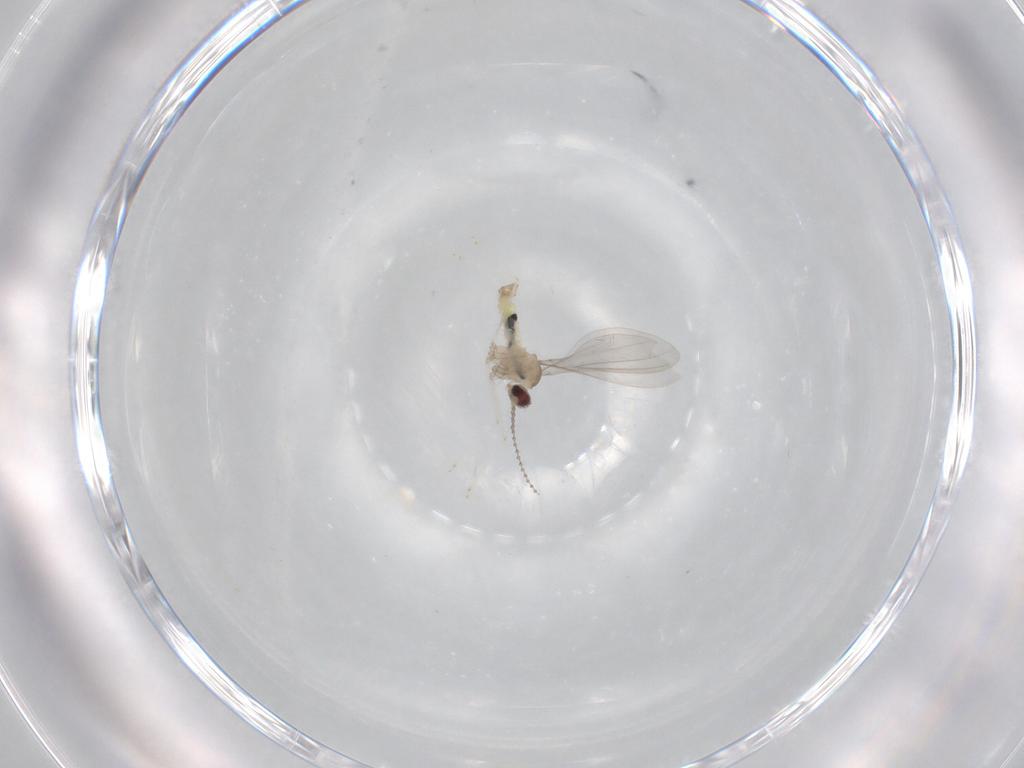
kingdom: Animalia
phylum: Arthropoda
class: Insecta
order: Diptera
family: Cecidomyiidae
